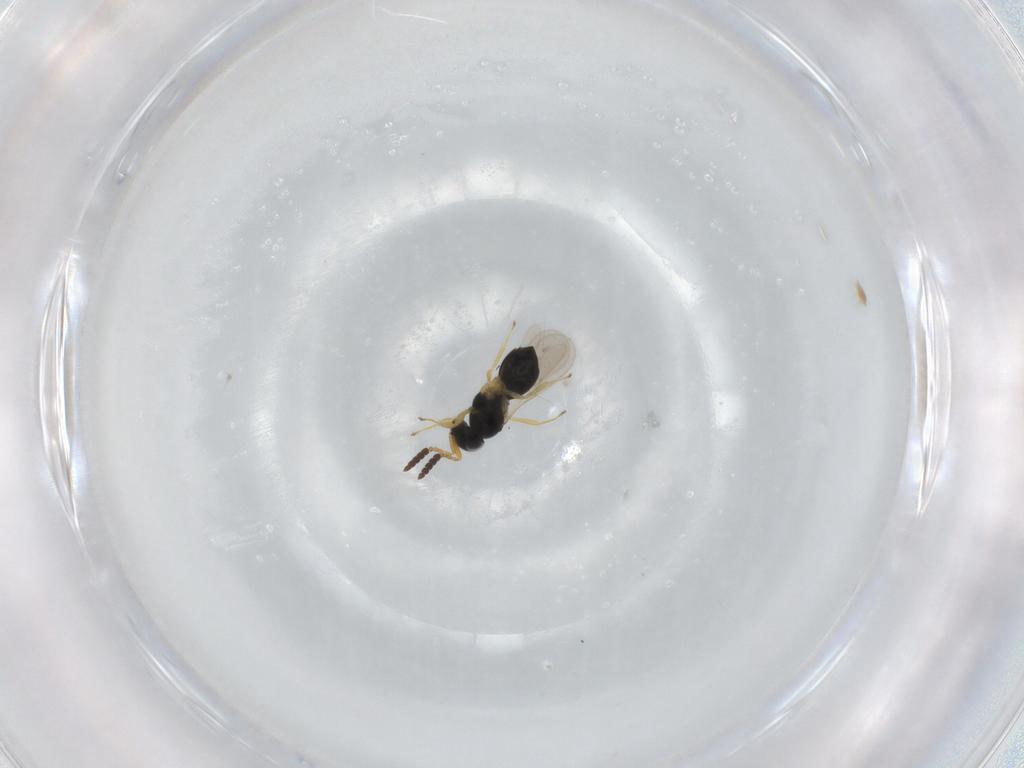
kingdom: Animalia
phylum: Arthropoda
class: Insecta
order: Hymenoptera
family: Scelionidae
